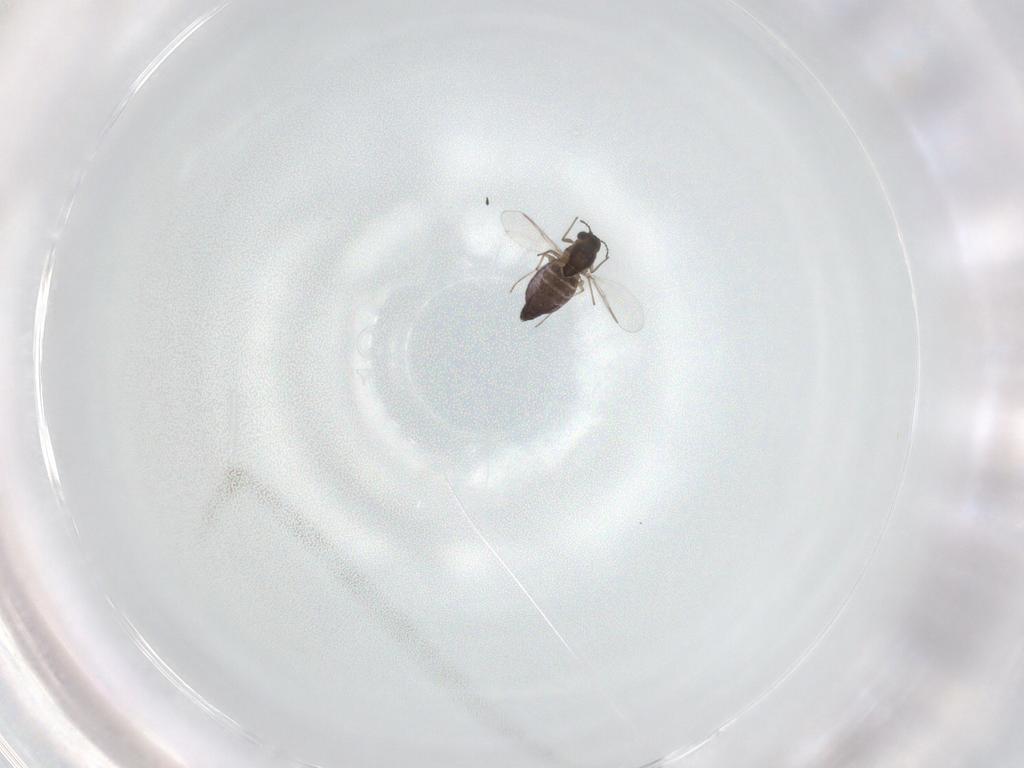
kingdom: Animalia
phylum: Arthropoda
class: Insecta
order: Diptera
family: Chironomidae
